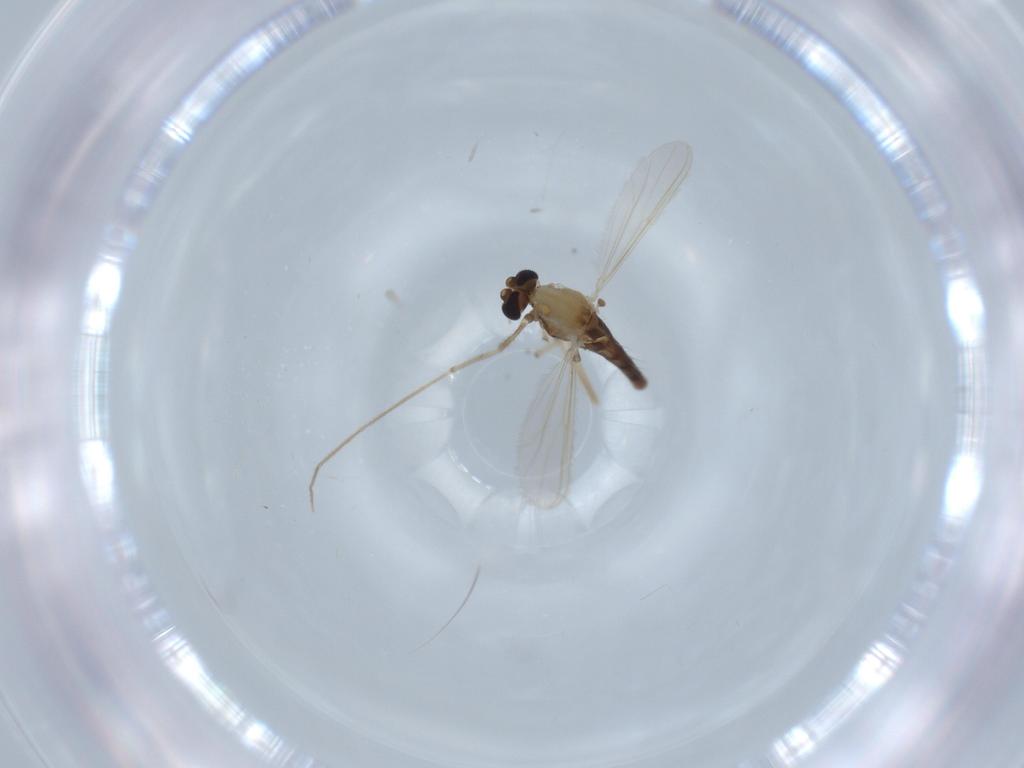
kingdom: Animalia
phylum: Arthropoda
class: Insecta
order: Diptera
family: Chironomidae
